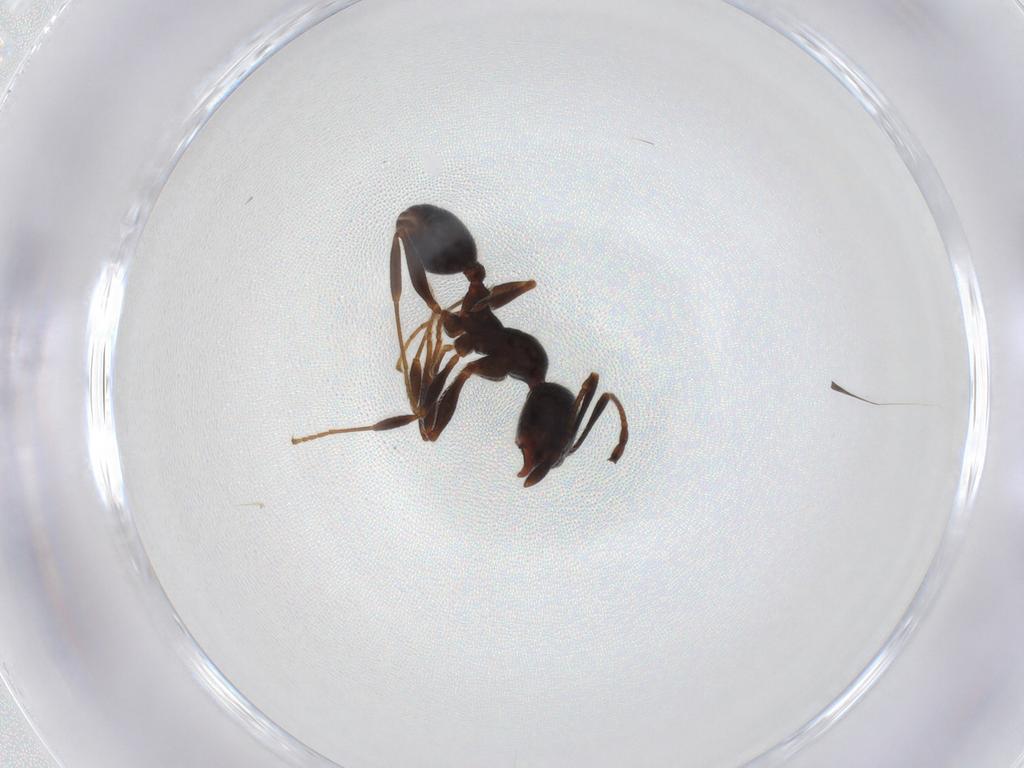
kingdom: Animalia
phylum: Arthropoda
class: Insecta
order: Hymenoptera
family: Formicidae
